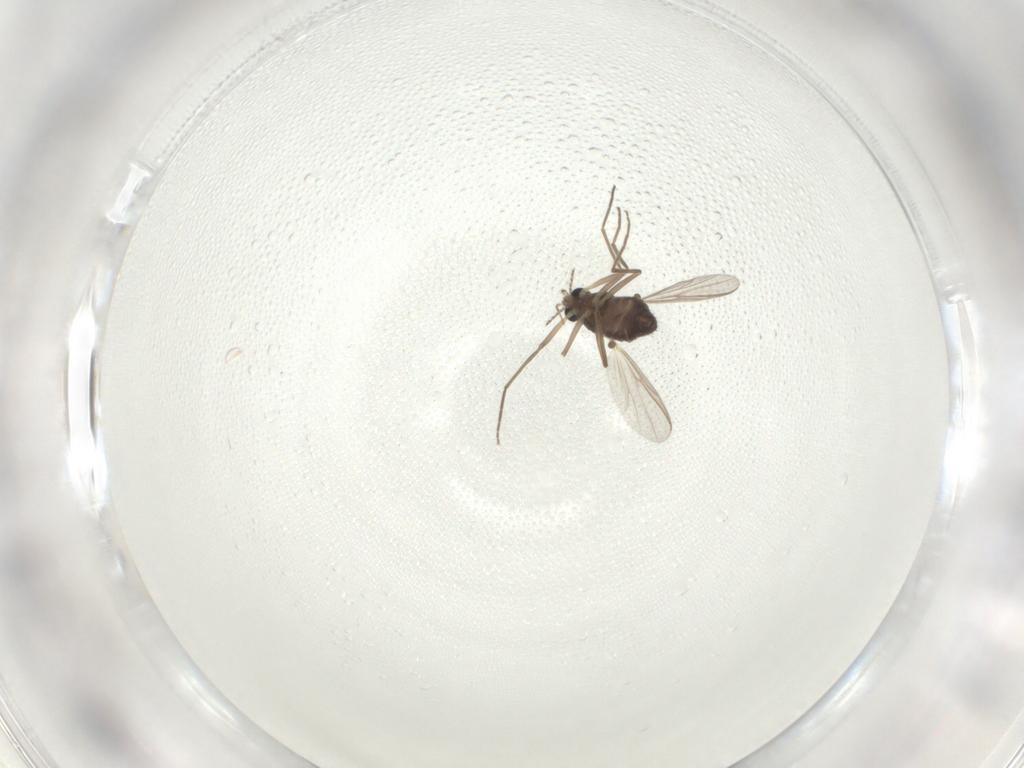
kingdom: Animalia
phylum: Arthropoda
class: Insecta
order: Diptera
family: Chironomidae
